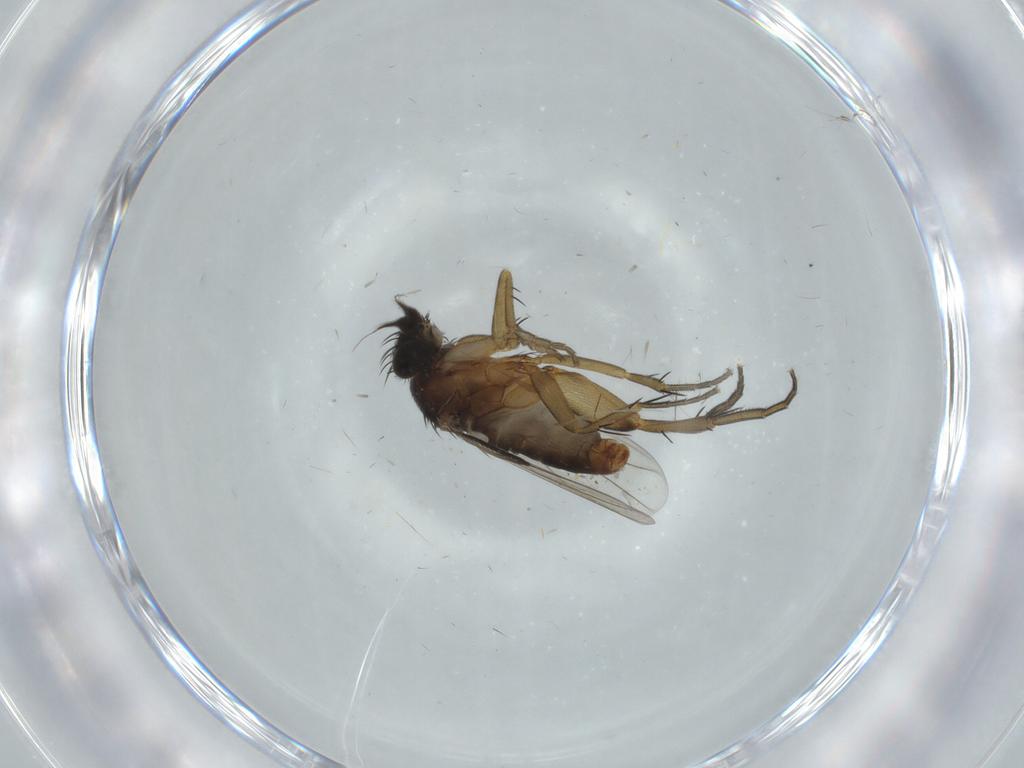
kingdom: Animalia
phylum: Arthropoda
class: Insecta
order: Diptera
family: Phoridae
